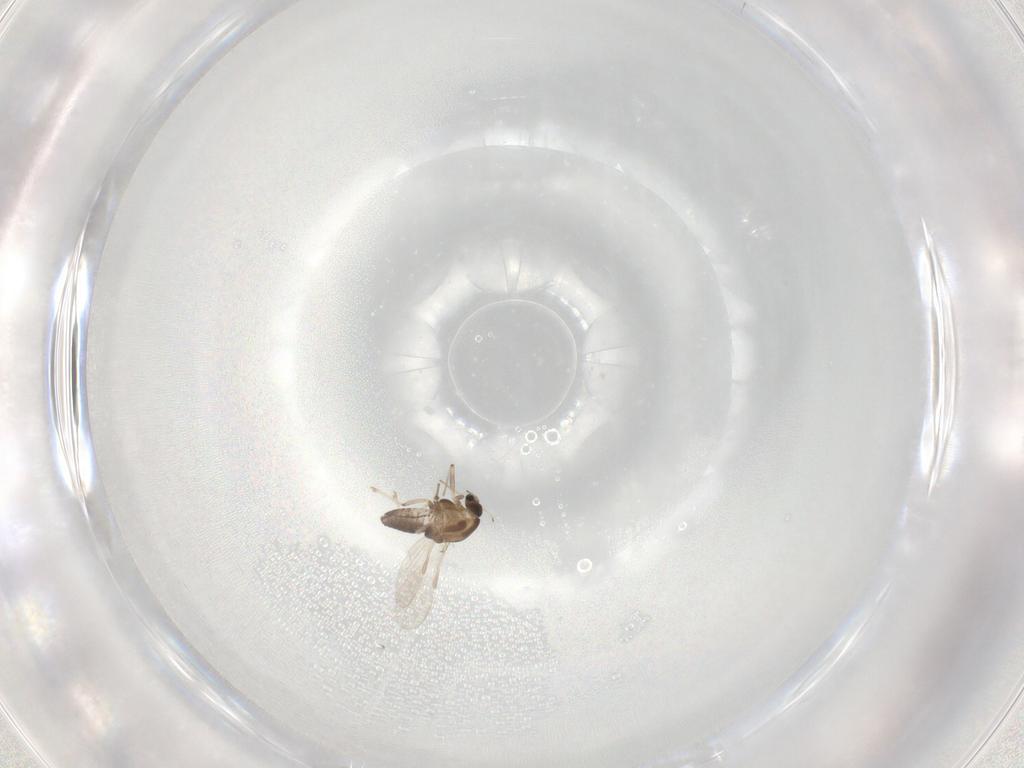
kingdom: Animalia
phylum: Arthropoda
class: Insecta
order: Diptera
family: Chironomidae
